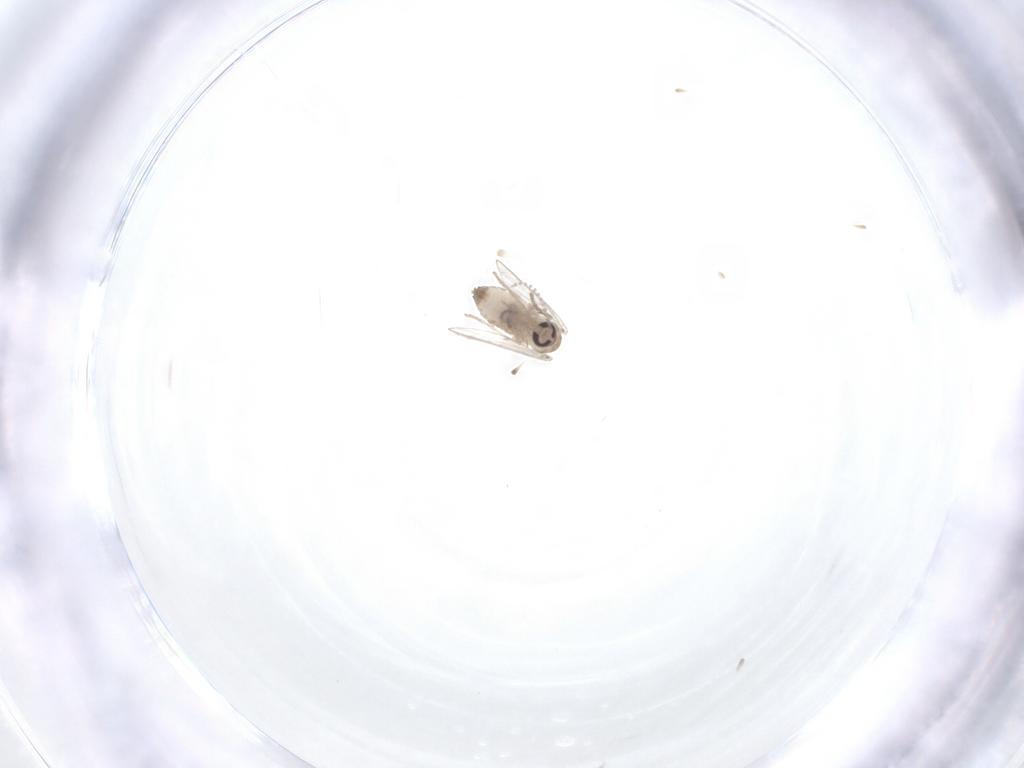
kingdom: Animalia
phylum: Arthropoda
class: Insecta
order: Diptera
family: Psychodidae
